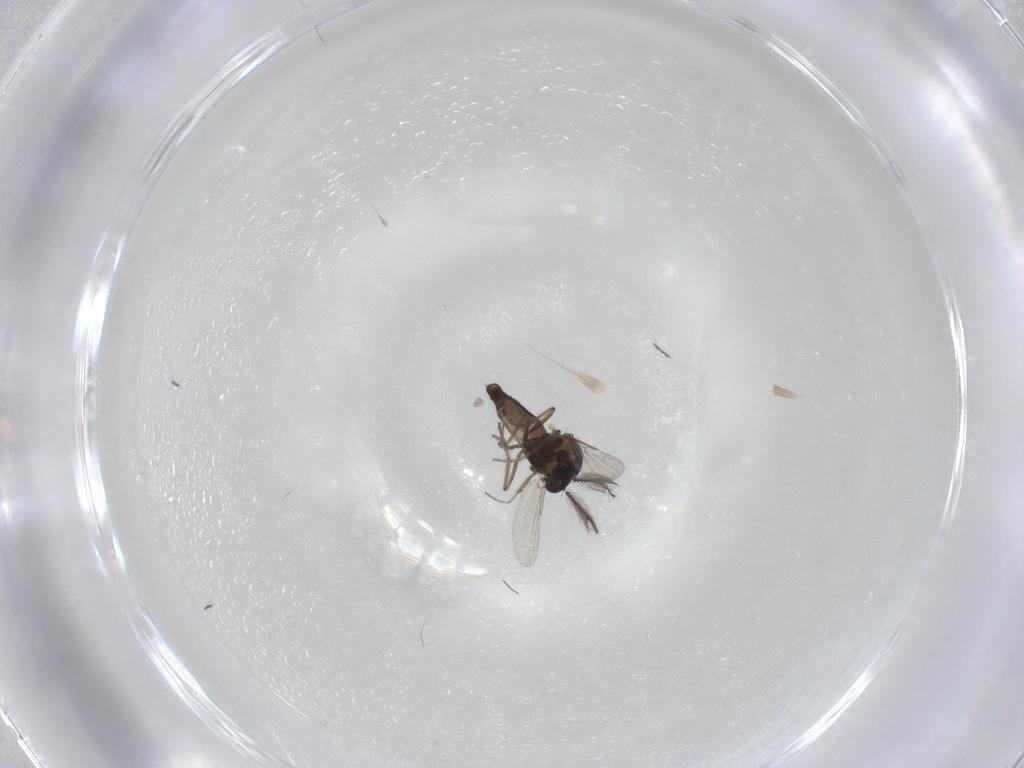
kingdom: Animalia
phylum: Arthropoda
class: Insecta
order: Diptera
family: Ceratopogonidae
